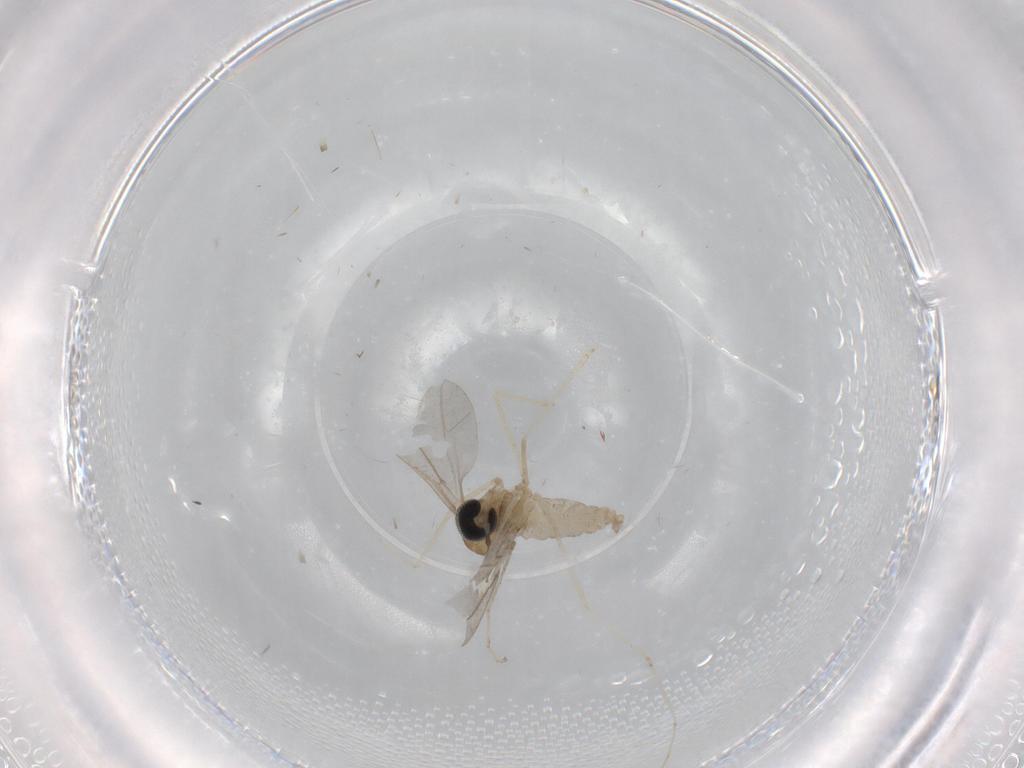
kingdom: Animalia
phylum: Arthropoda
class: Insecta
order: Diptera
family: Cecidomyiidae
